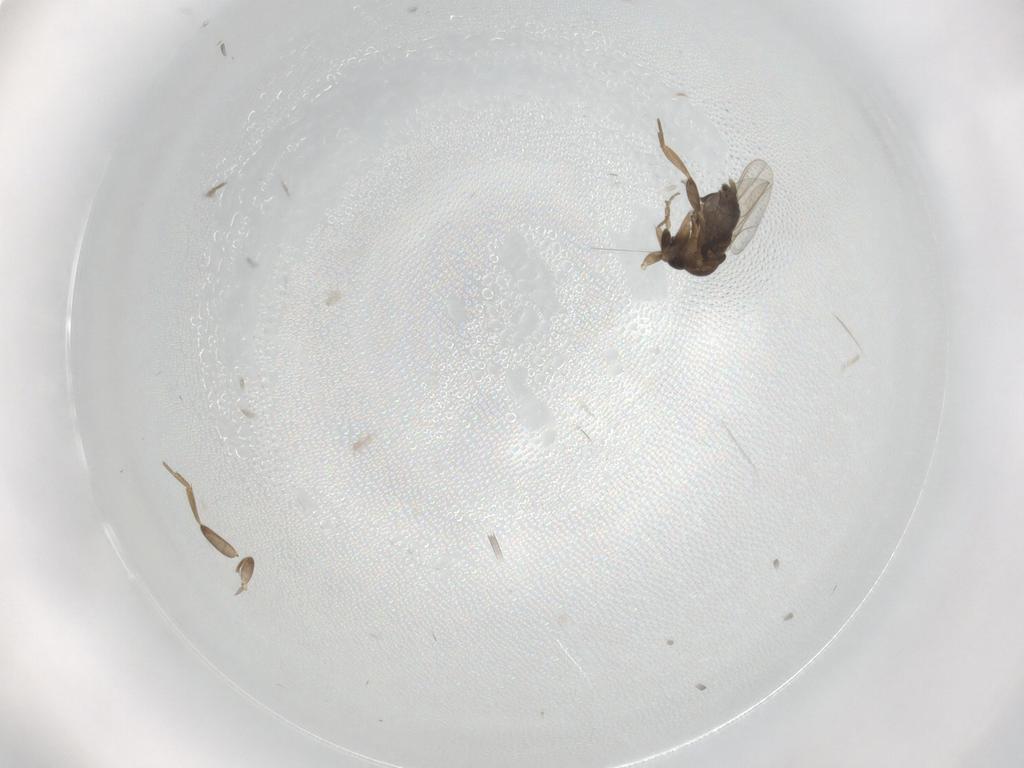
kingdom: Animalia
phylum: Arthropoda
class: Insecta
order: Diptera
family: Phoridae
